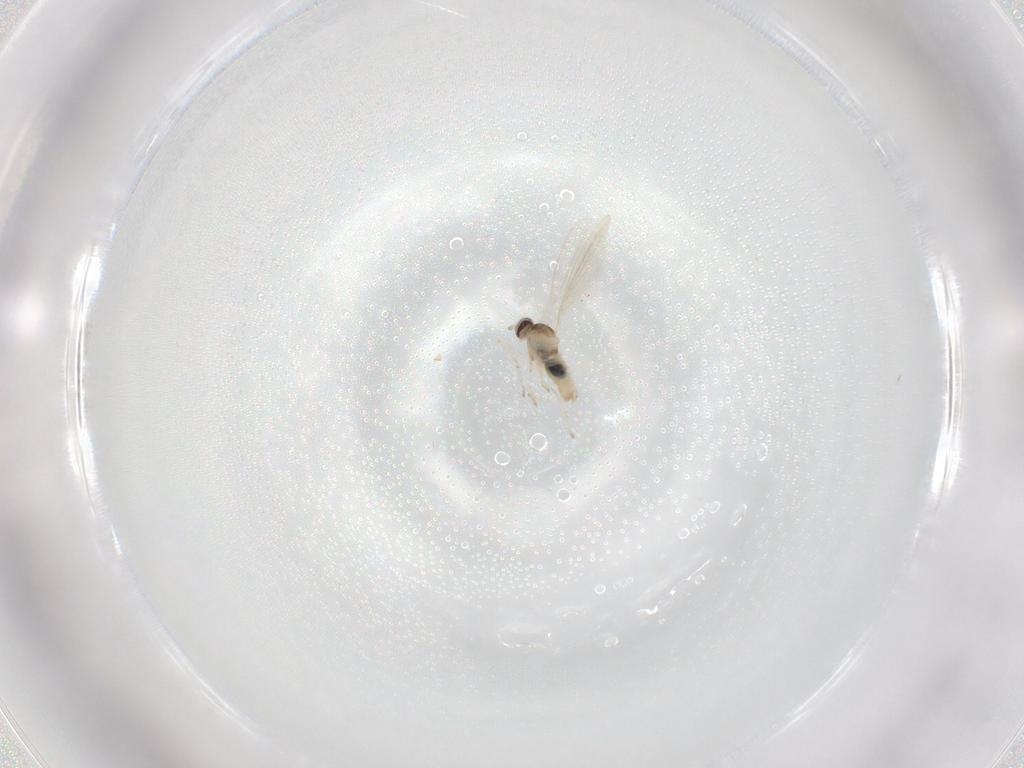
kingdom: Animalia
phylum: Arthropoda
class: Insecta
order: Diptera
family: Cecidomyiidae
